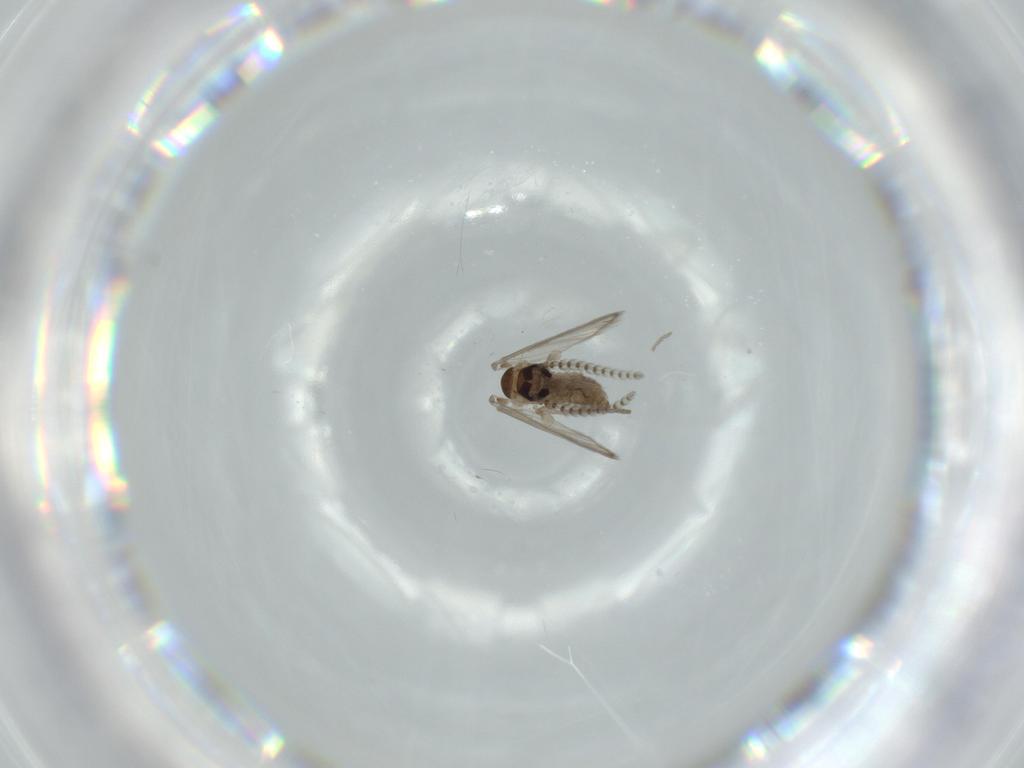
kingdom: Animalia
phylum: Arthropoda
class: Insecta
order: Diptera
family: Psychodidae
